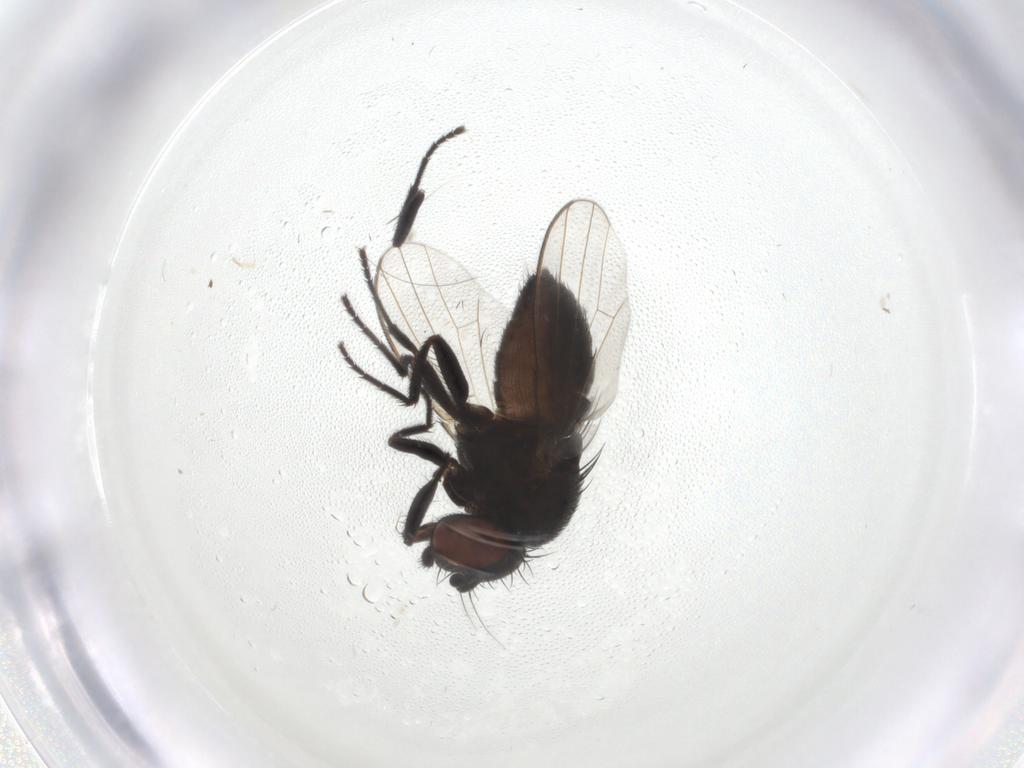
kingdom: Animalia
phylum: Arthropoda
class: Insecta
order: Diptera
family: Milichiidae
